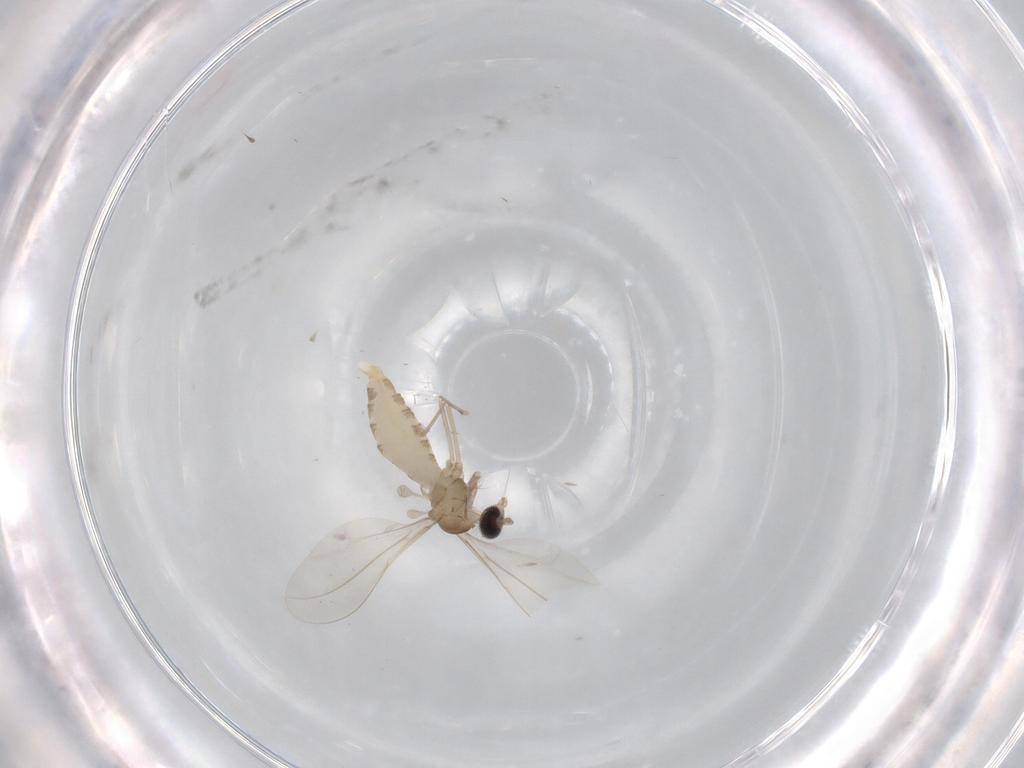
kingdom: Animalia
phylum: Arthropoda
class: Insecta
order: Diptera
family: Cecidomyiidae
